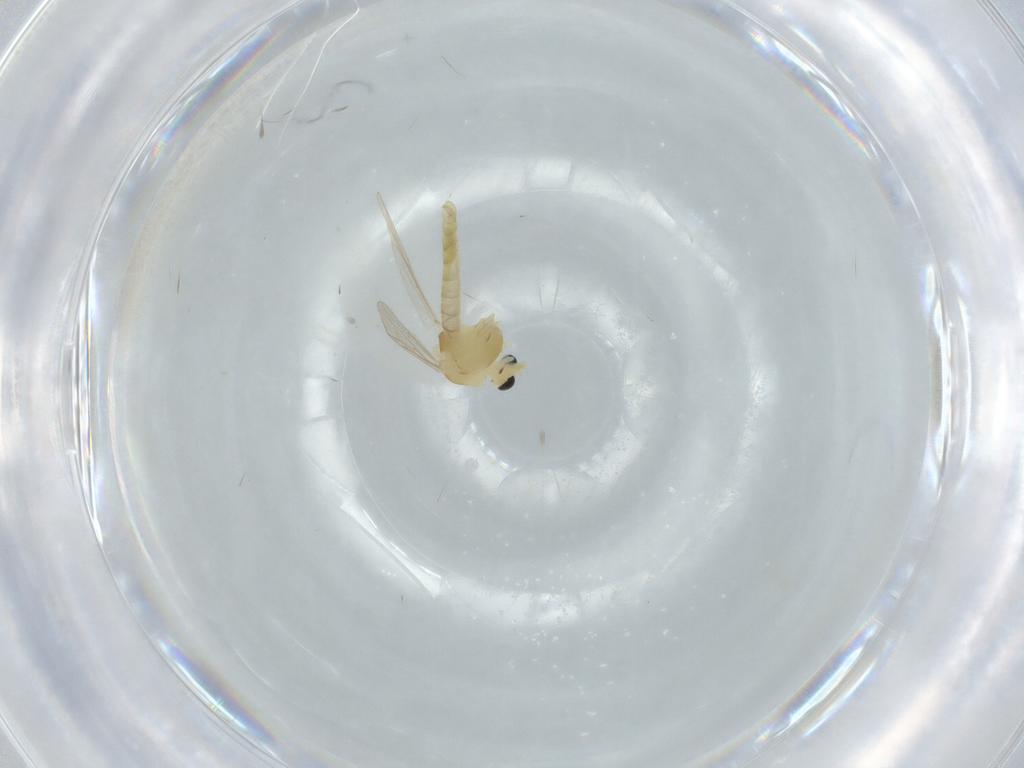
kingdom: Animalia
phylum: Arthropoda
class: Insecta
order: Diptera
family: Chironomidae
